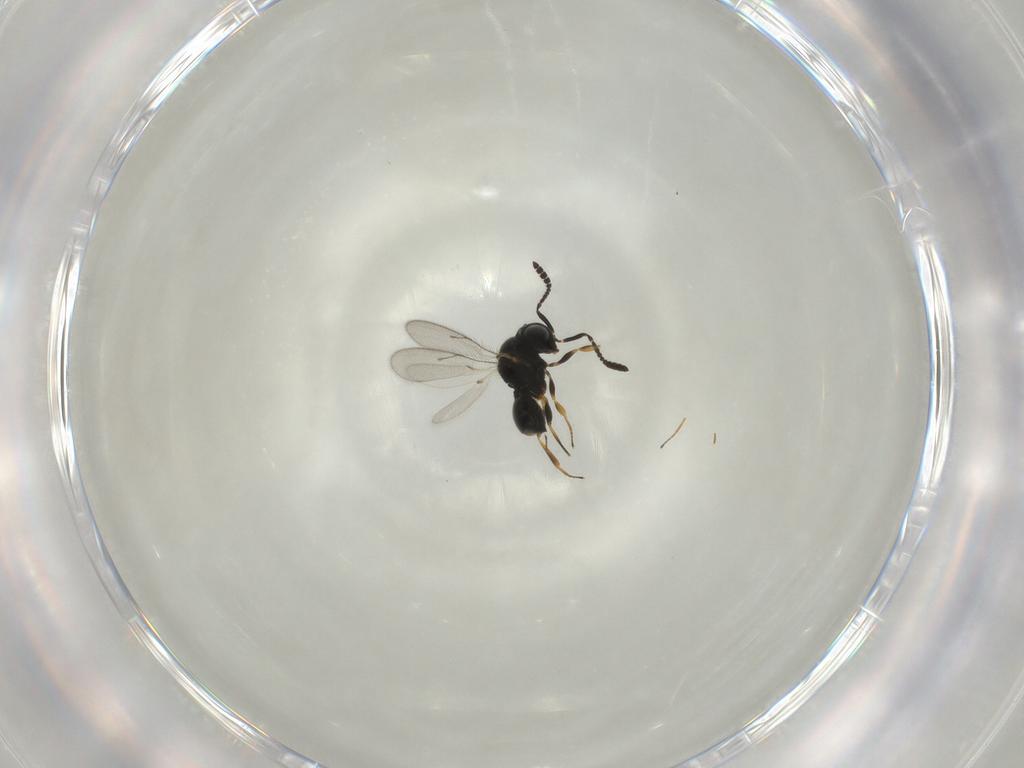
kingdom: Animalia
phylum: Arthropoda
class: Insecta
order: Hymenoptera
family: Scelionidae
